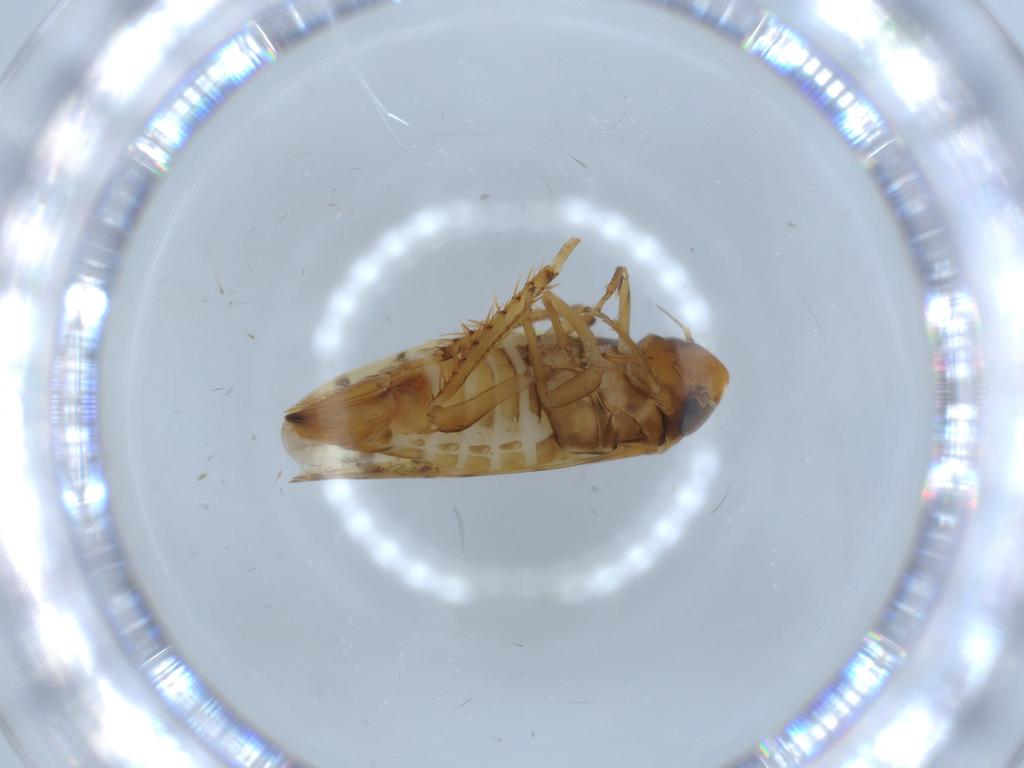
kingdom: Animalia
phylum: Arthropoda
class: Insecta
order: Hemiptera
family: Cicadellidae
